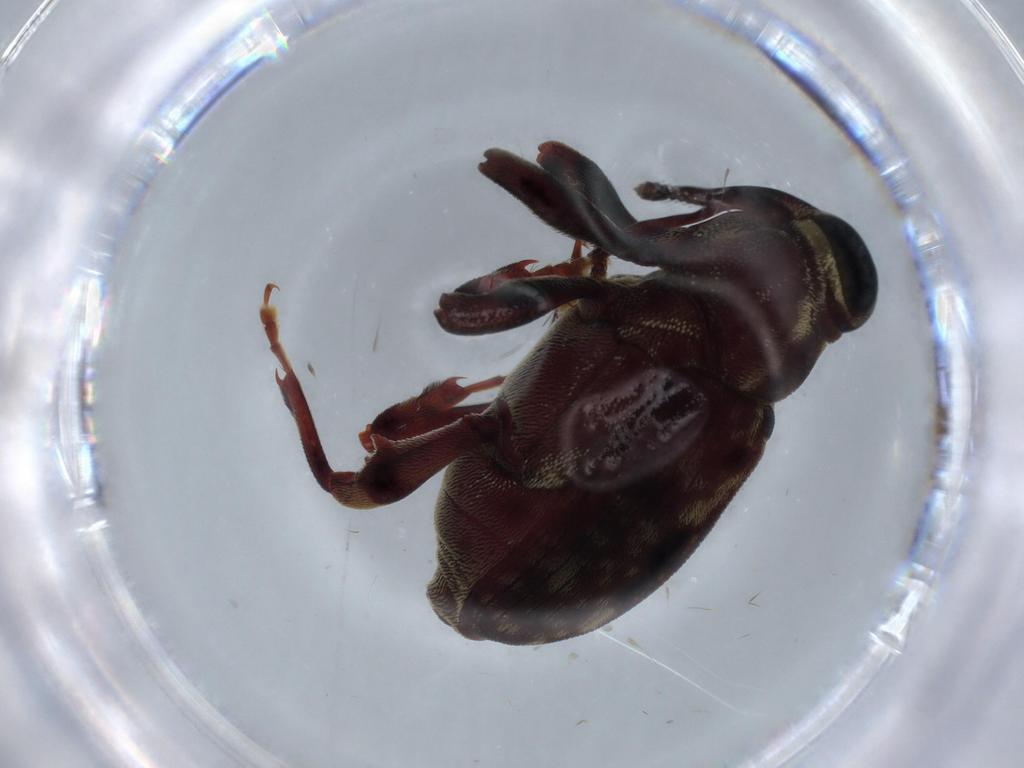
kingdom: Animalia
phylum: Arthropoda
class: Insecta
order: Coleoptera
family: Curculionidae
